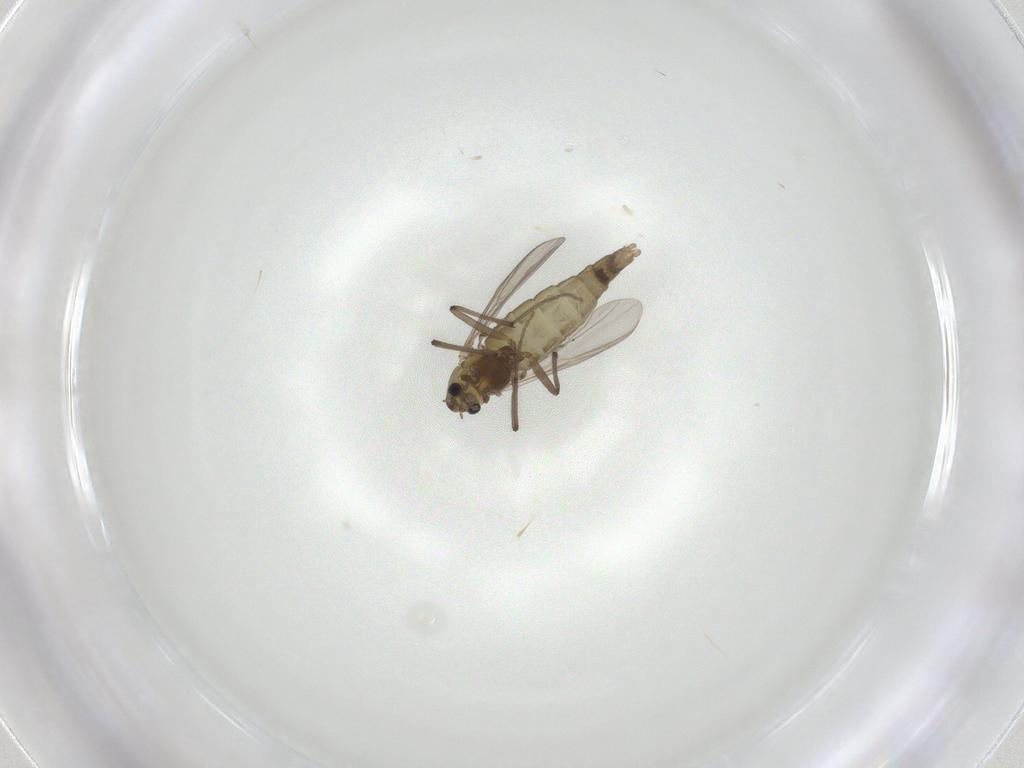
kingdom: Animalia
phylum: Arthropoda
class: Insecta
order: Diptera
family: Chironomidae
